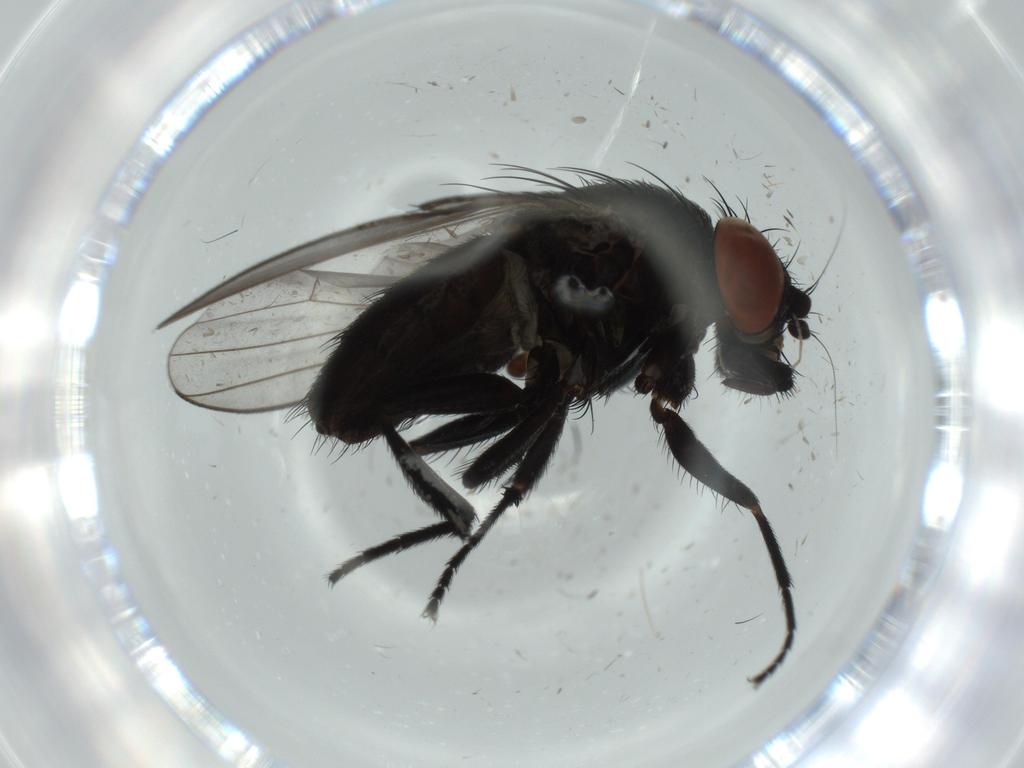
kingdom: Animalia
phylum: Arthropoda
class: Insecta
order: Diptera
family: Milichiidae
